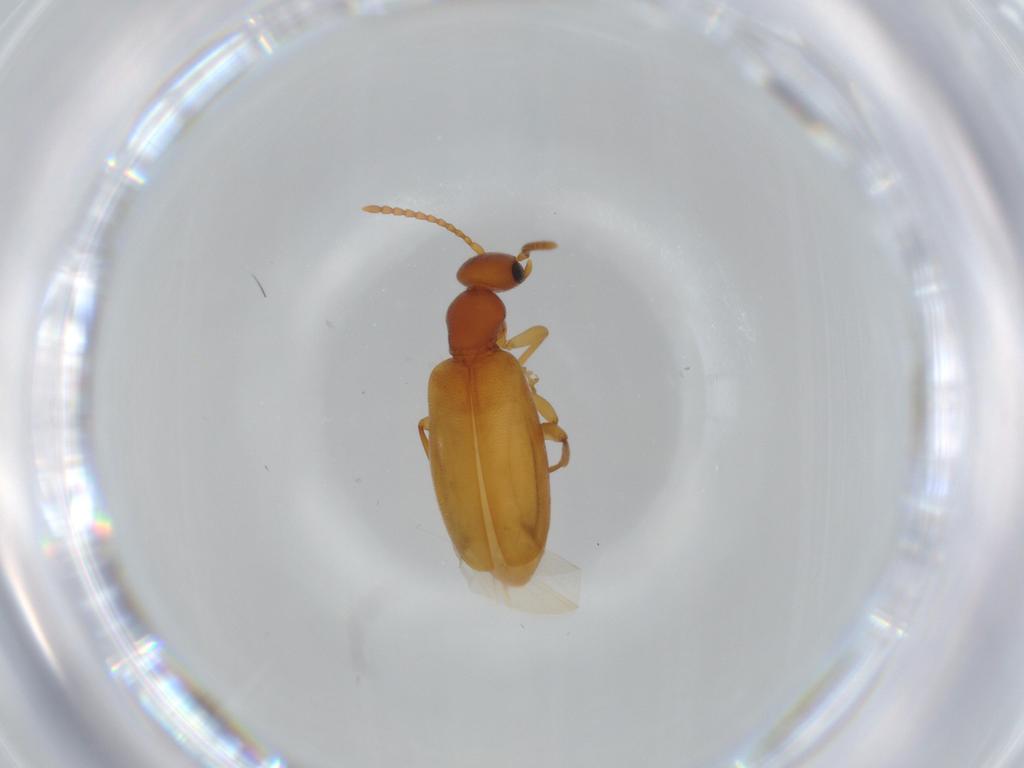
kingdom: Animalia
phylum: Arthropoda
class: Insecta
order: Coleoptera
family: Anthicidae
